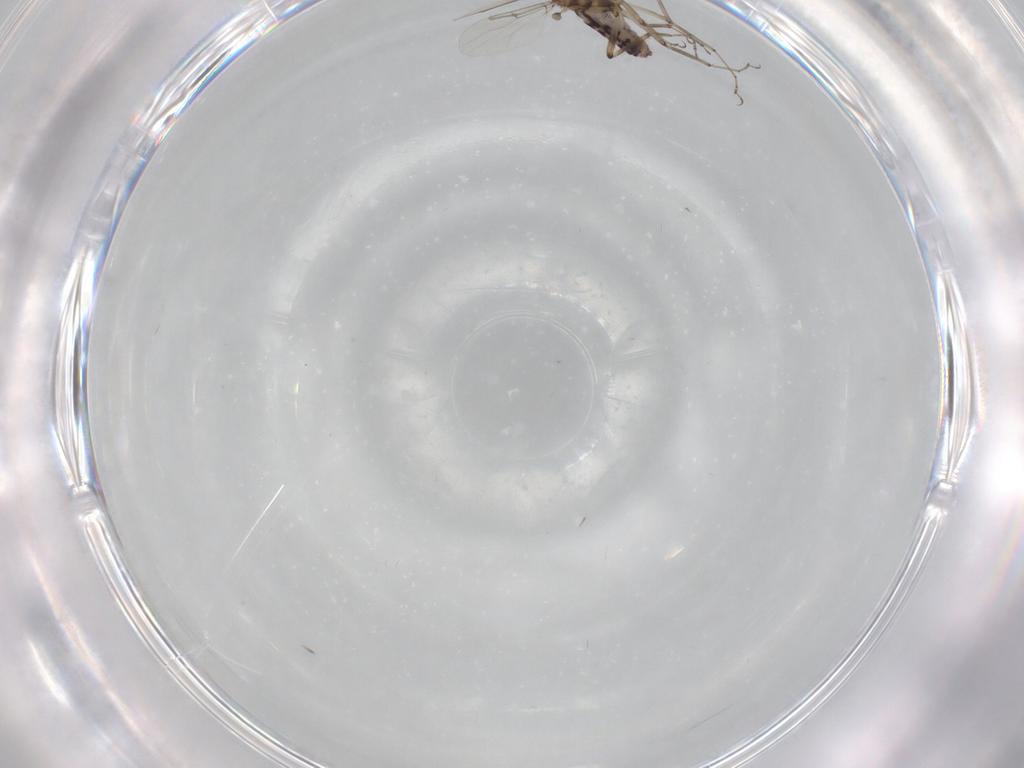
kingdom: Animalia
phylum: Arthropoda
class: Insecta
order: Diptera
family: Ceratopogonidae
